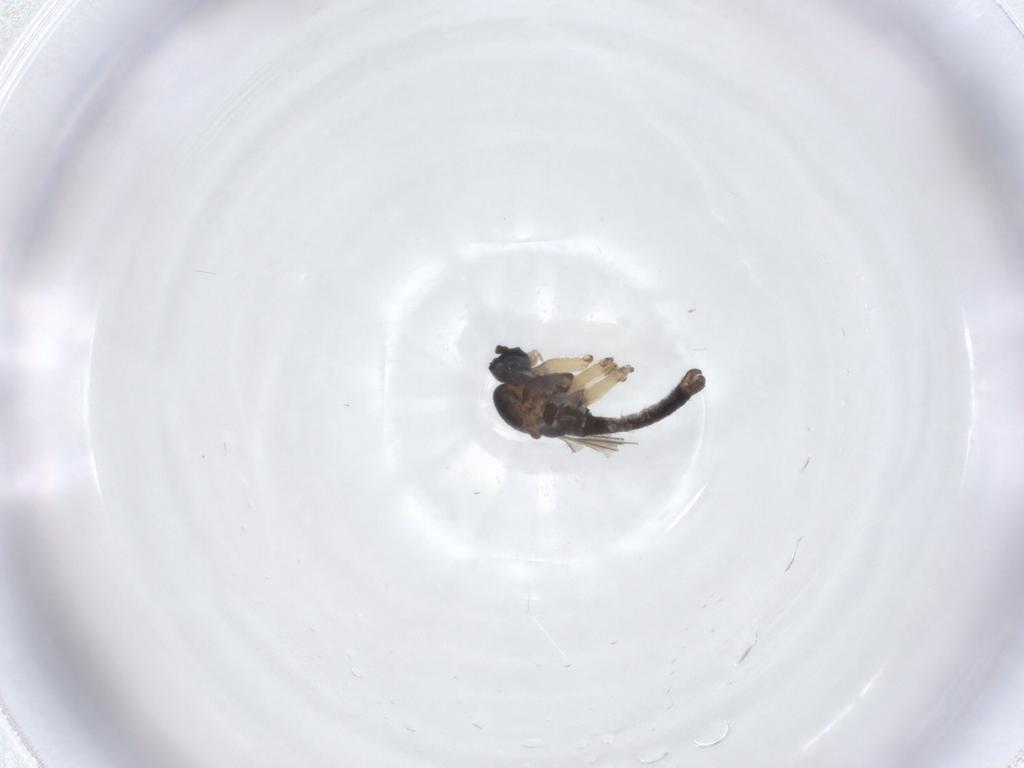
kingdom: Animalia
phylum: Arthropoda
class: Insecta
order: Diptera
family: Sciaridae
